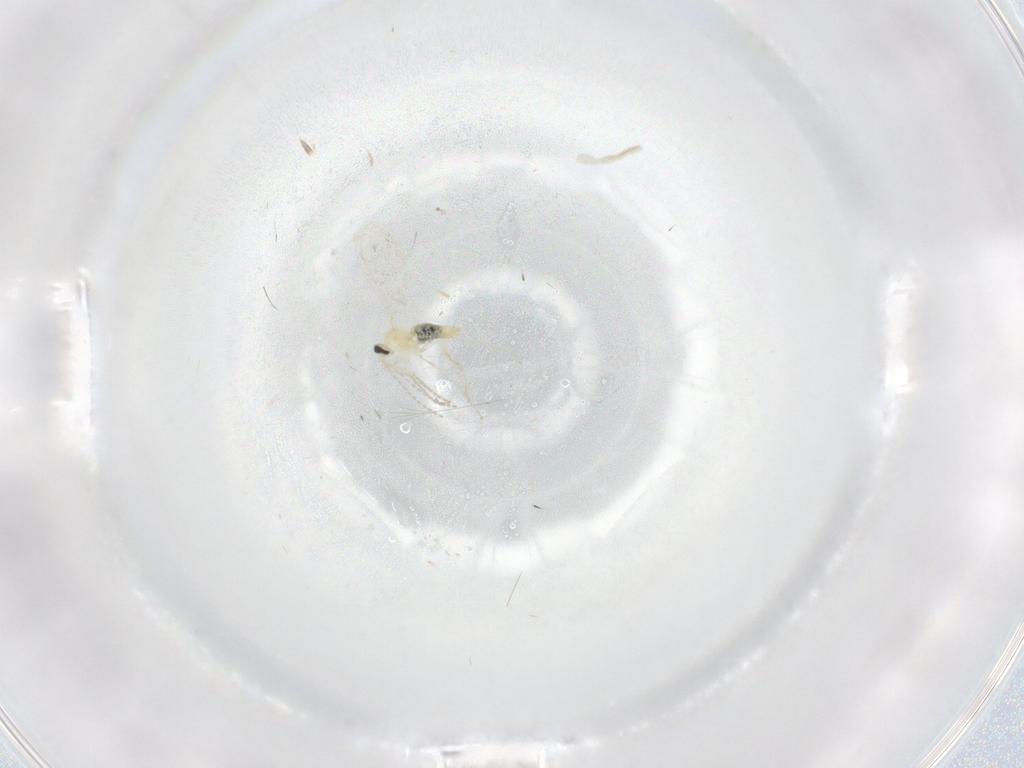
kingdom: Animalia
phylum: Arthropoda
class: Insecta
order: Diptera
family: Cecidomyiidae
